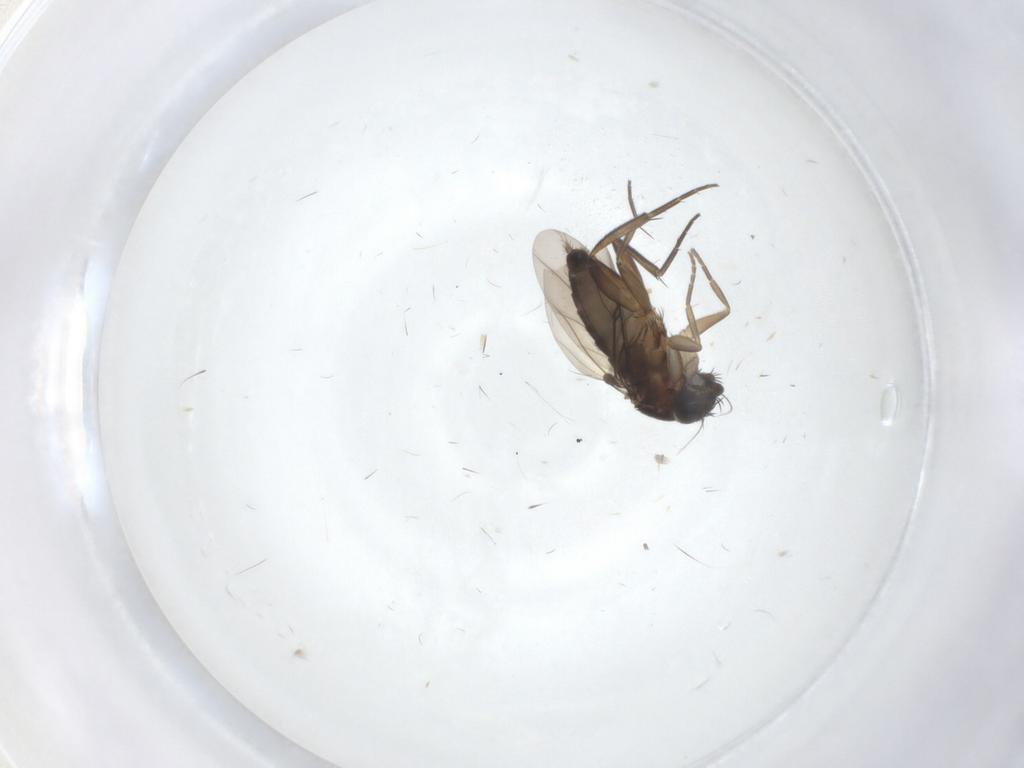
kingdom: Animalia
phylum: Arthropoda
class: Insecta
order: Diptera
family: Phoridae
